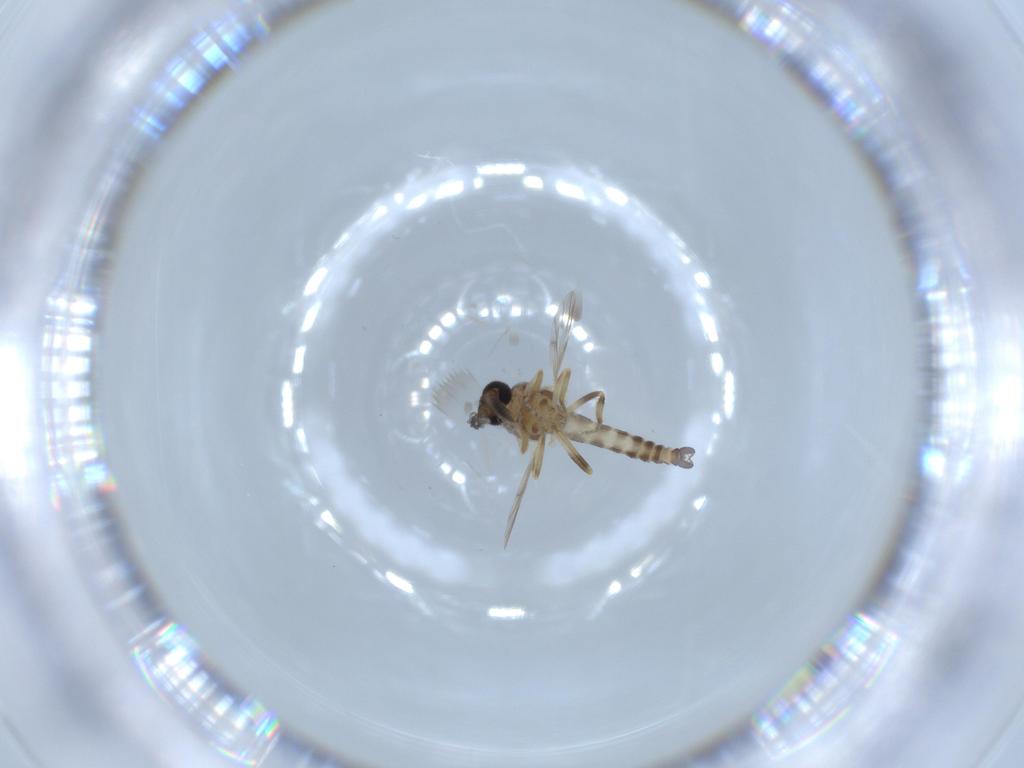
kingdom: Animalia
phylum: Arthropoda
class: Insecta
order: Diptera
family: Ceratopogonidae
